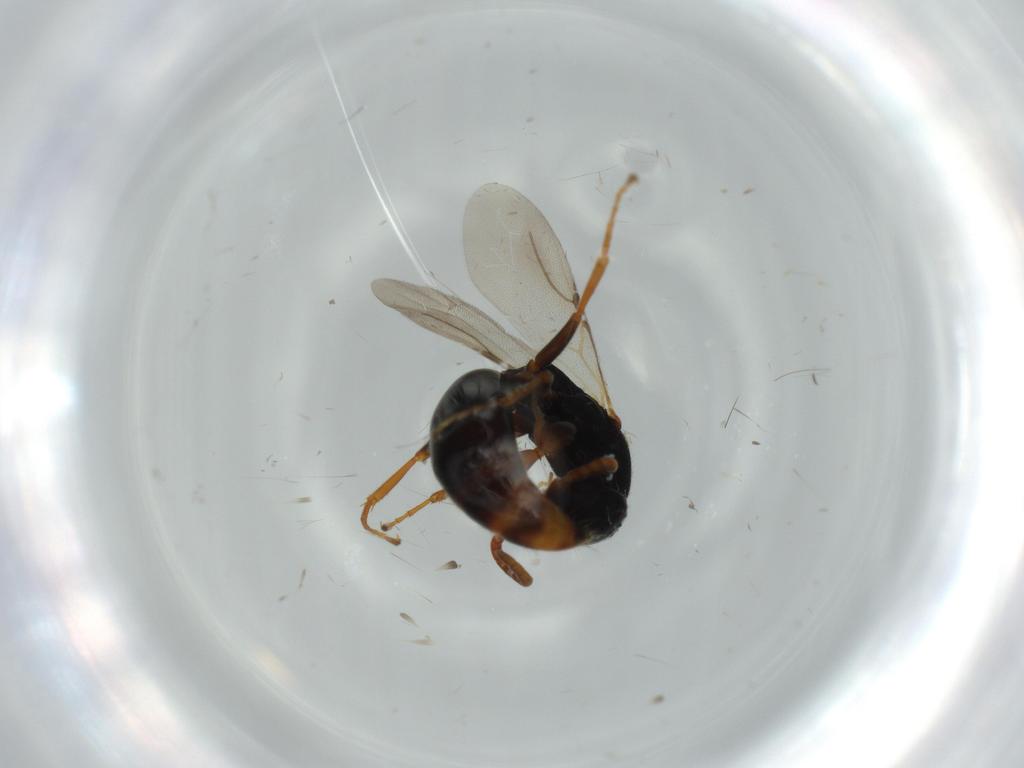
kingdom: Animalia
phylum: Arthropoda
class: Insecta
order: Hymenoptera
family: Bethylidae
